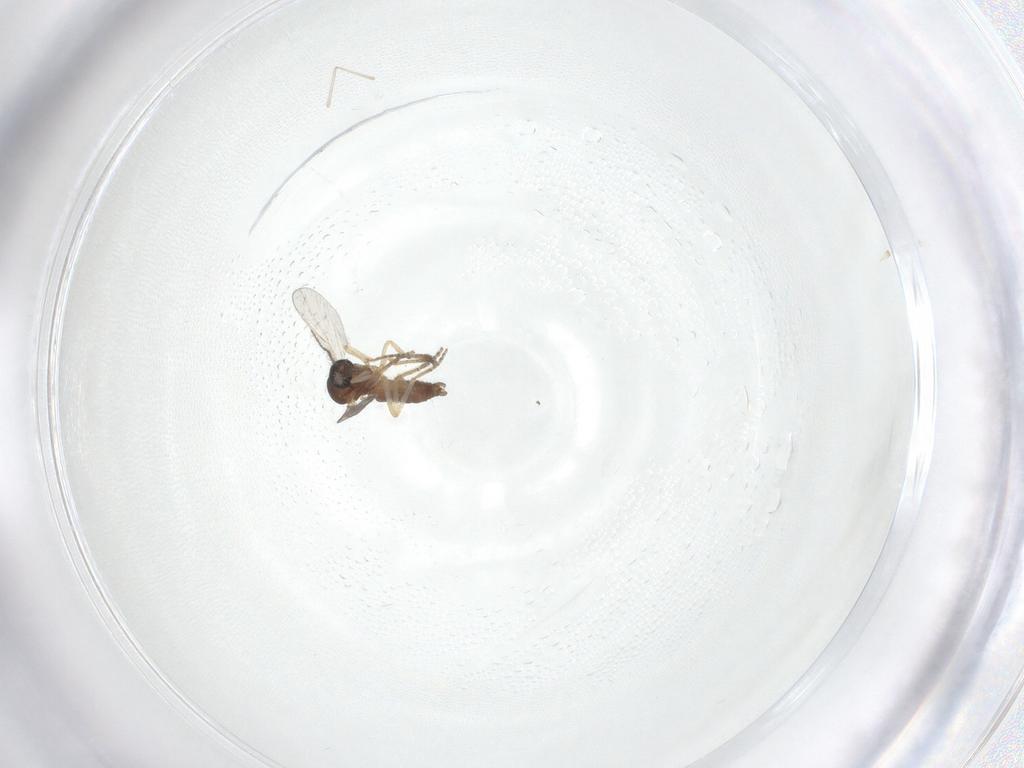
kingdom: Animalia
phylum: Arthropoda
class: Insecta
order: Diptera
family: Cecidomyiidae
